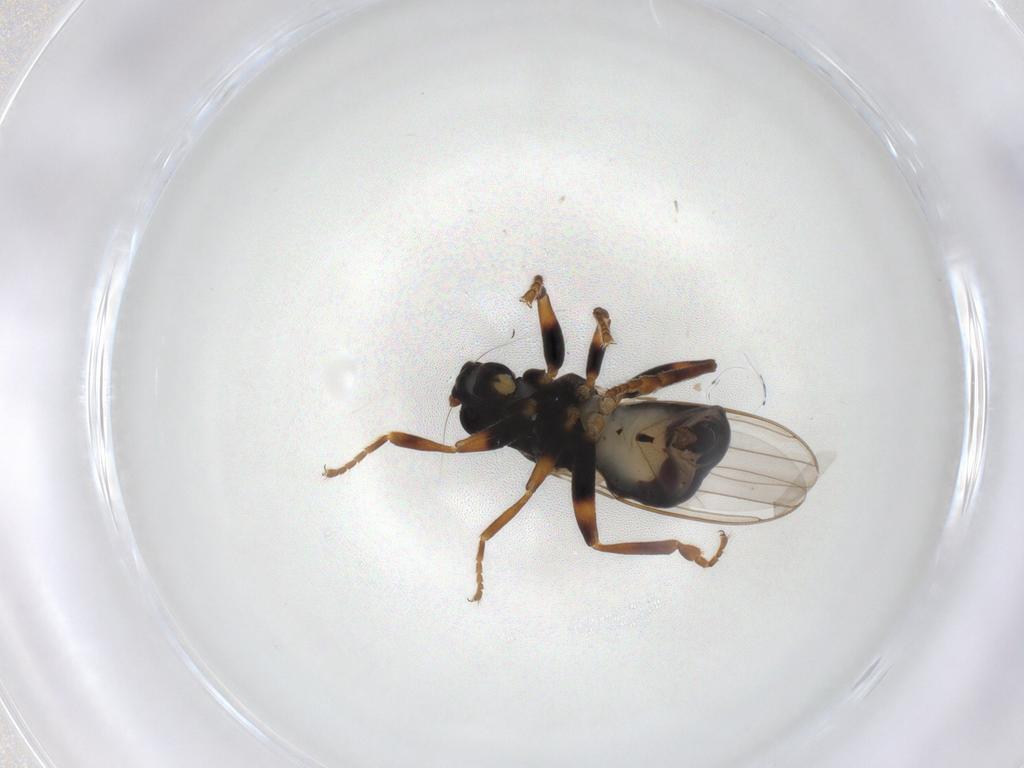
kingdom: Animalia
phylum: Arthropoda
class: Insecta
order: Diptera
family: Sphaeroceridae
